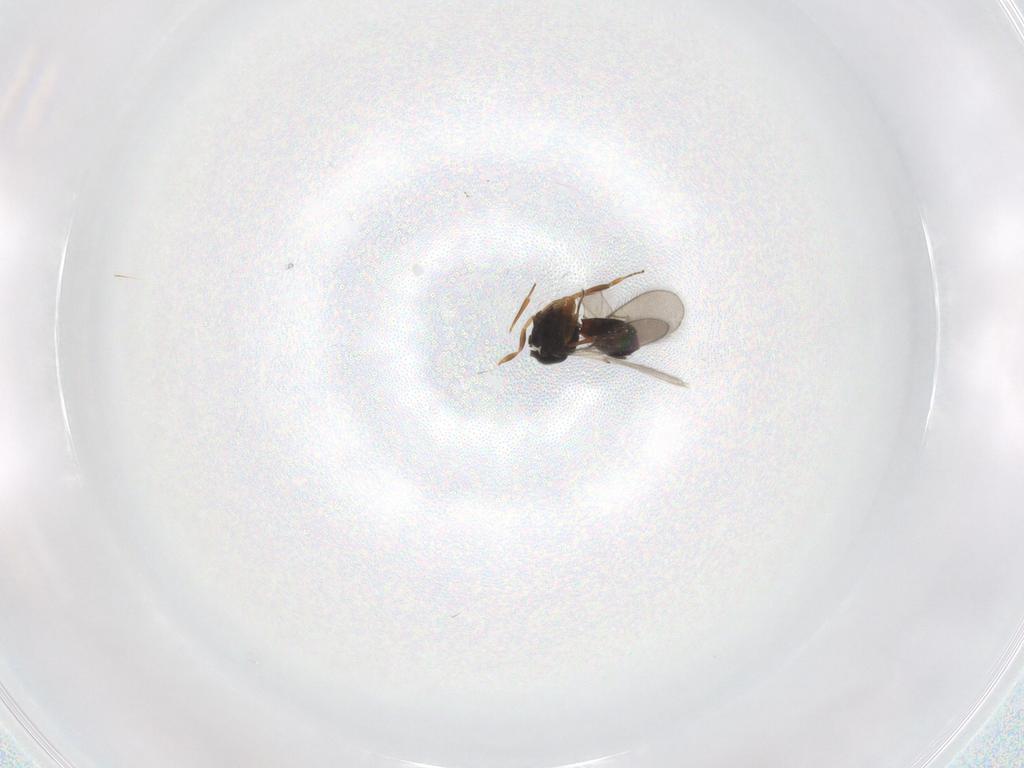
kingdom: Animalia
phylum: Arthropoda
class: Insecta
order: Hymenoptera
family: Scelionidae
